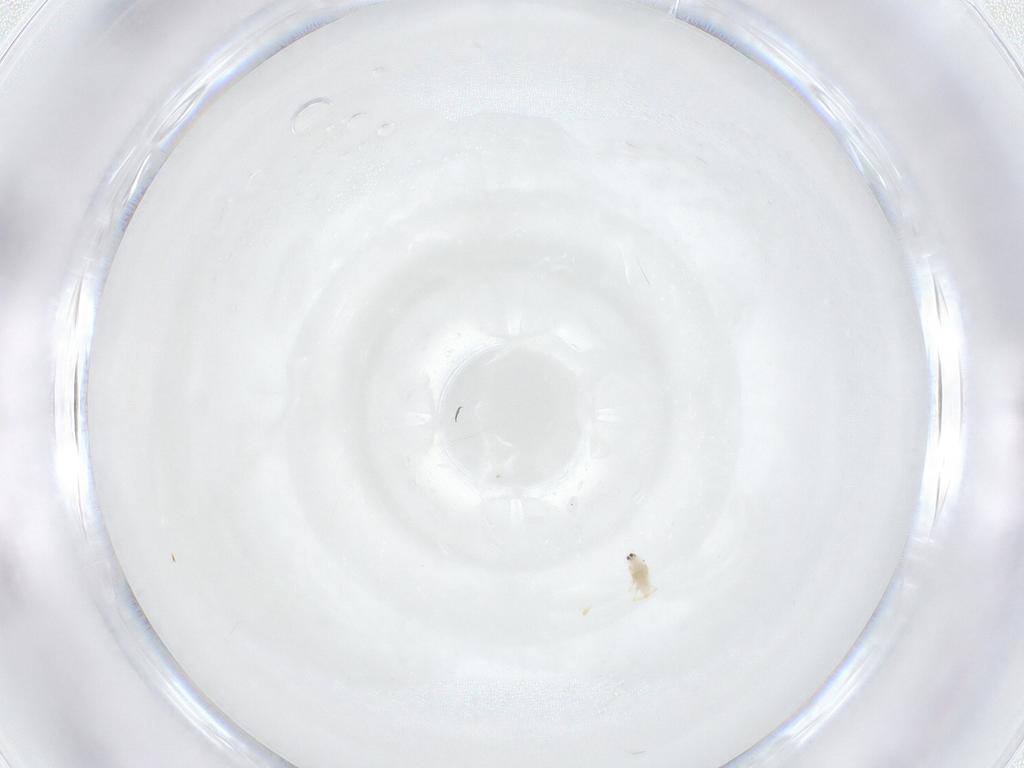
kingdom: Animalia
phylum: Arthropoda
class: Insecta
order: Hemiptera
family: Diaspididae
